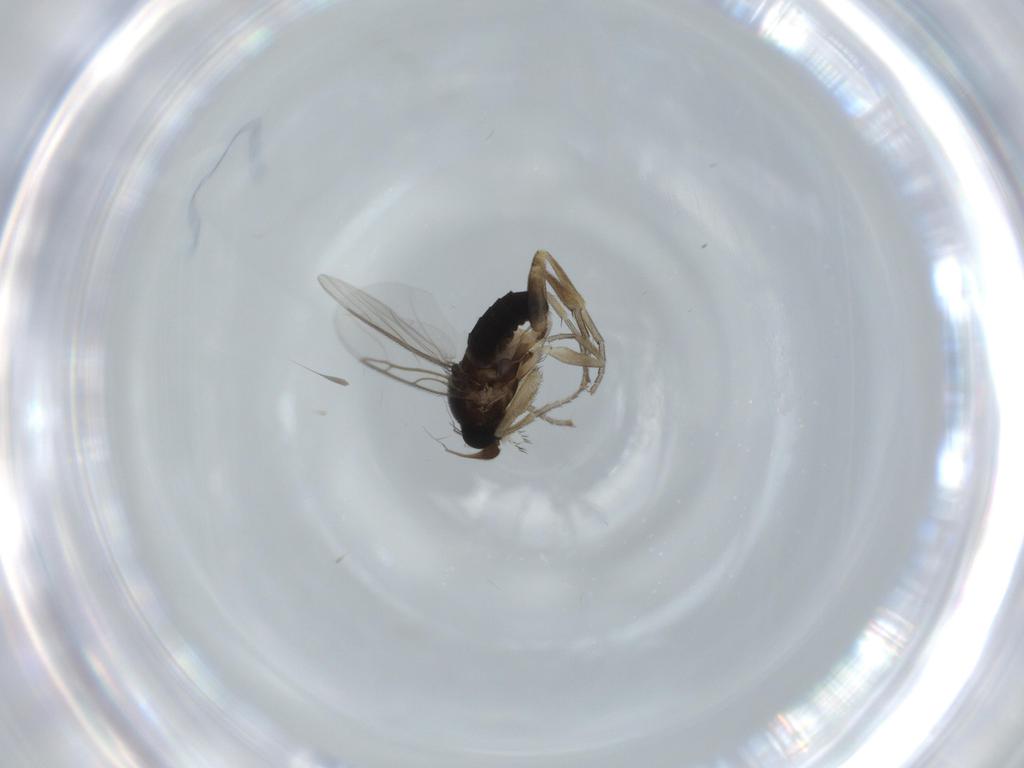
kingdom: Animalia
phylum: Arthropoda
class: Insecta
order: Diptera
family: Phoridae
